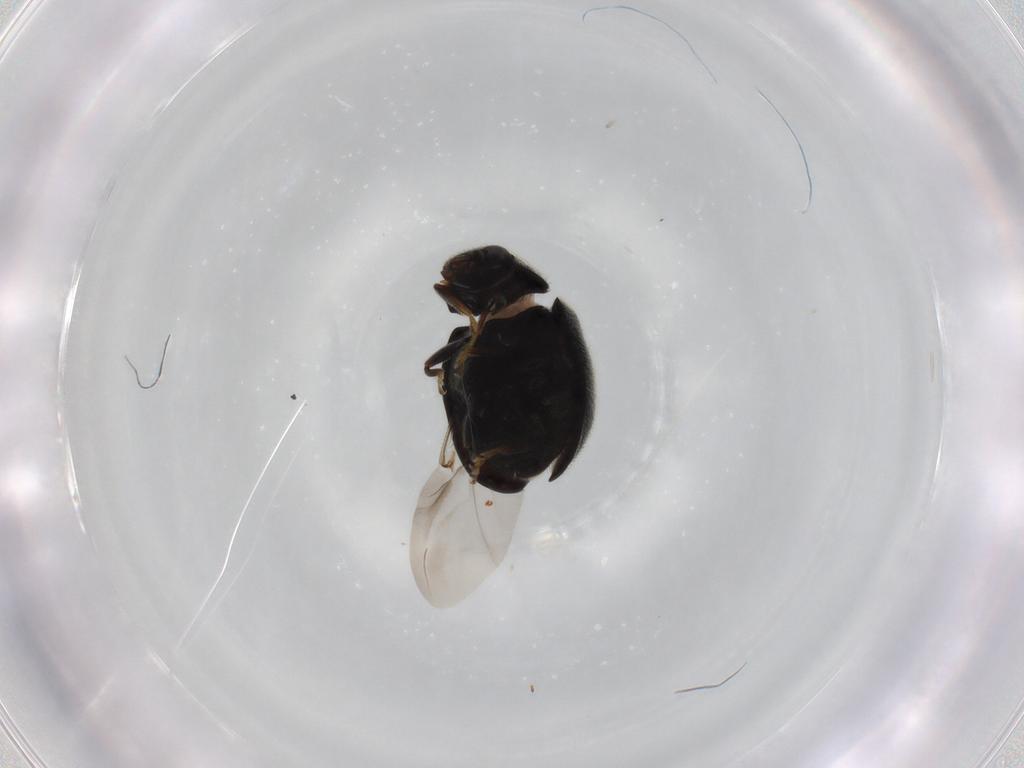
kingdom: Animalia
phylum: Arthropoda
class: Insecta
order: Coleoptera
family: Coccinellidae
